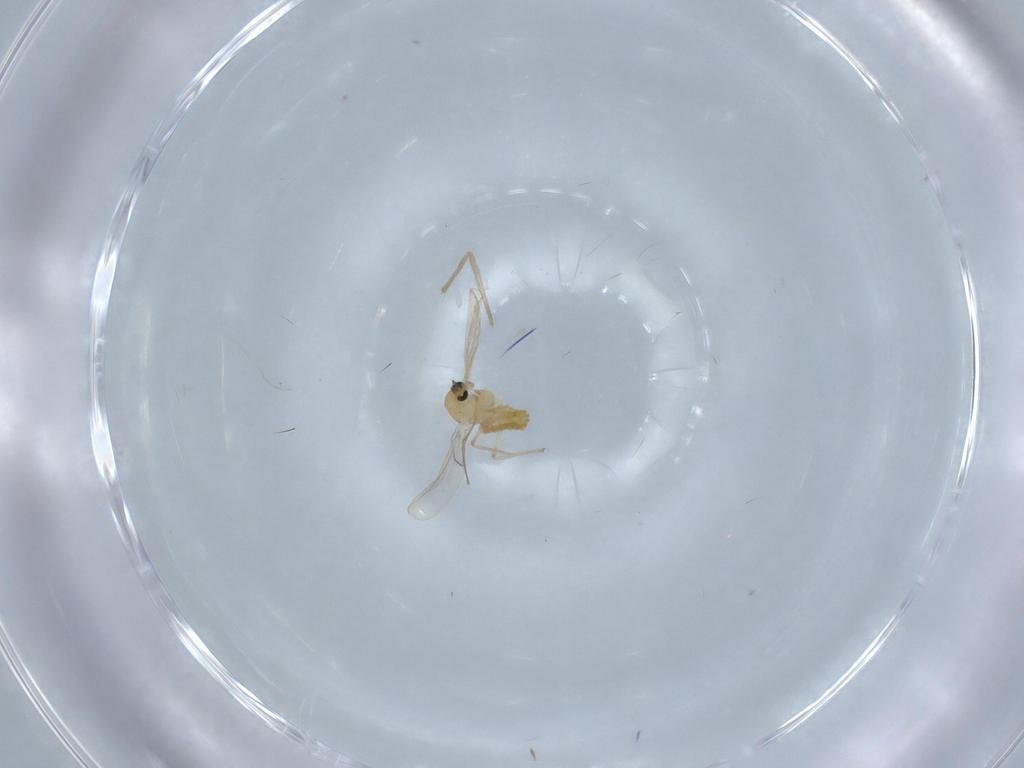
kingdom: Animalia
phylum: Arthropoda
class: Insecta
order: Diptera
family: Chironomidae
